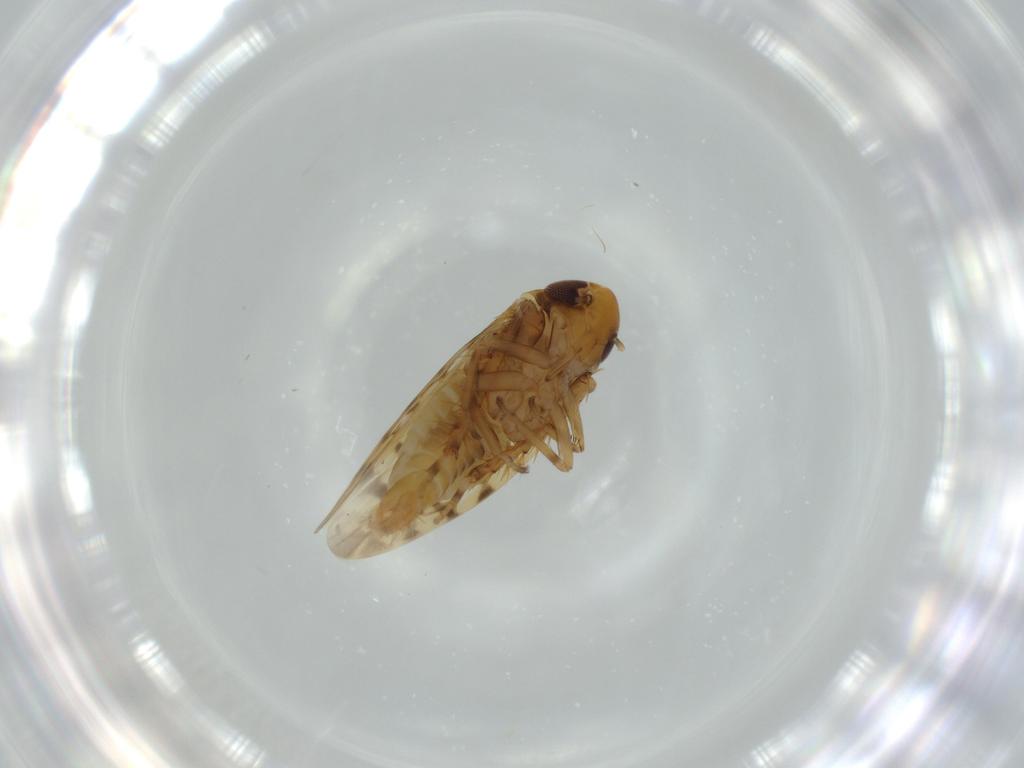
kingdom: Animalia
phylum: Arthropoda
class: Insecta
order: Hemiptera
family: Cicadellidae
